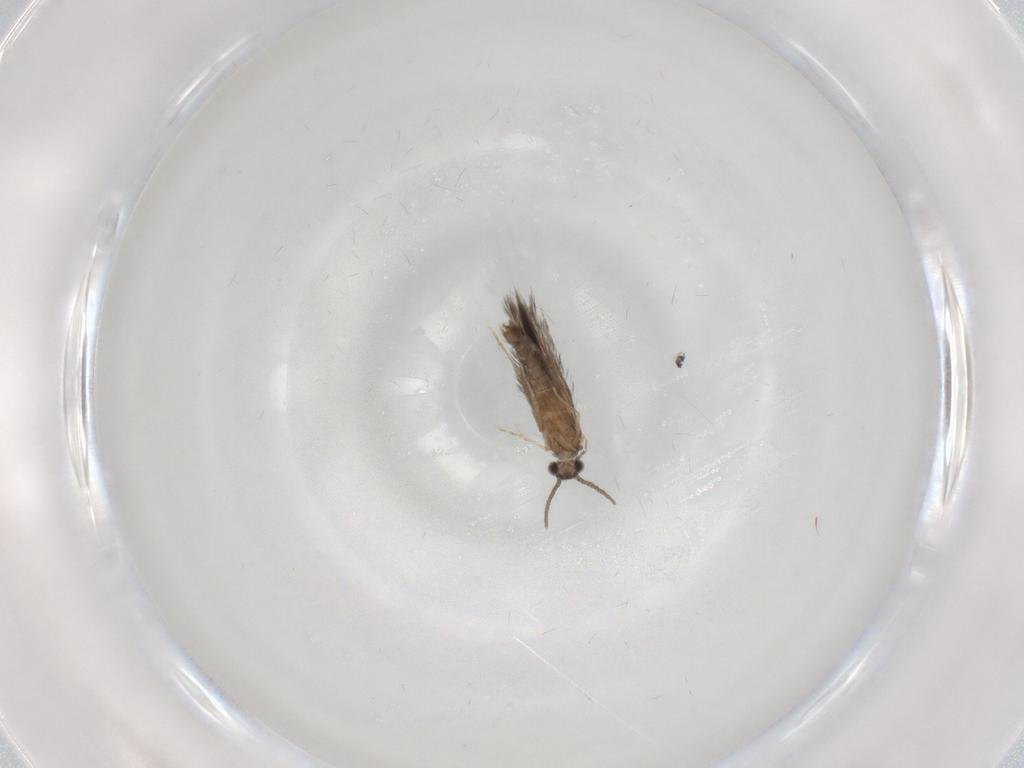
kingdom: Animalia
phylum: Arthropoda
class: Insecta
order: Trichoptera
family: Hydroptilidae
